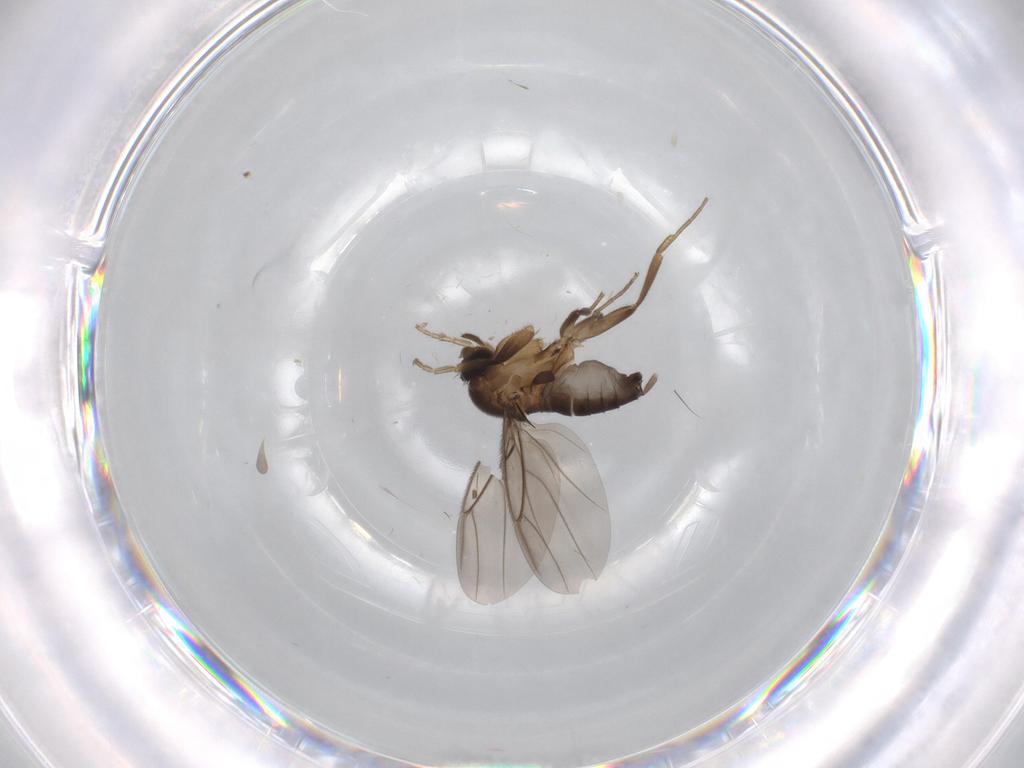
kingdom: Animalia
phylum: Arthropoda
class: Insecta
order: Diptera
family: Phoridae
